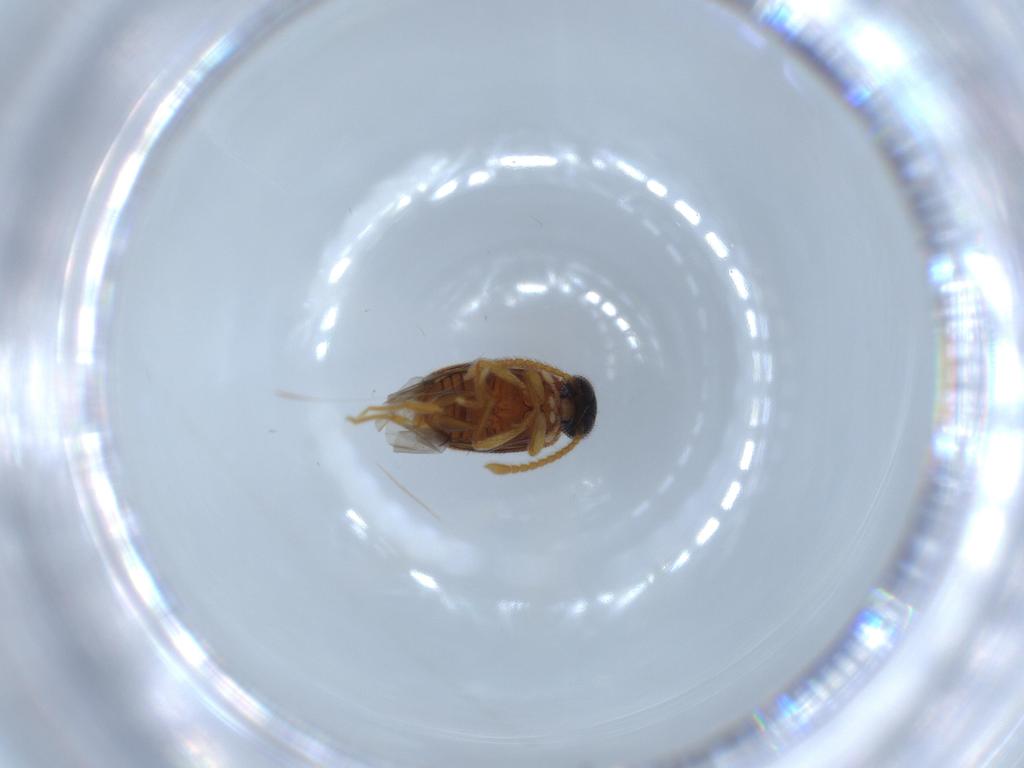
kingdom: Animalia
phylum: Arthropoda
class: Insecta
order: Coleoptera
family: Aderidae
